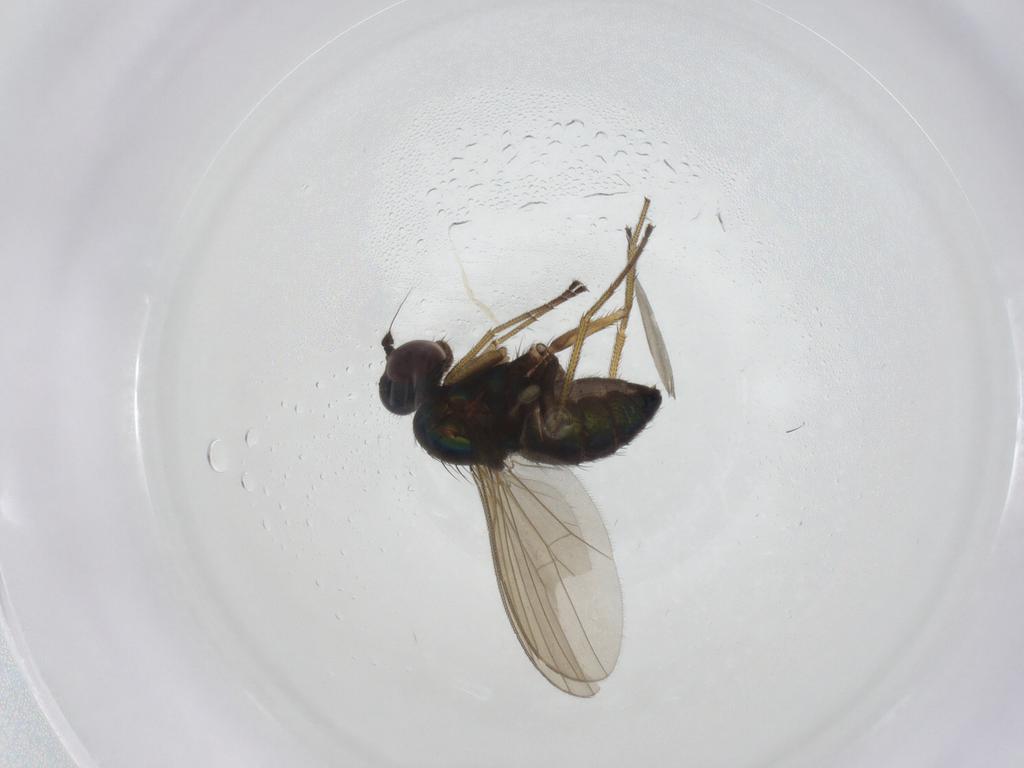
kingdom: Animalia
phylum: Arthropoda
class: Insecta
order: Diptera
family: Dolichopodidae
